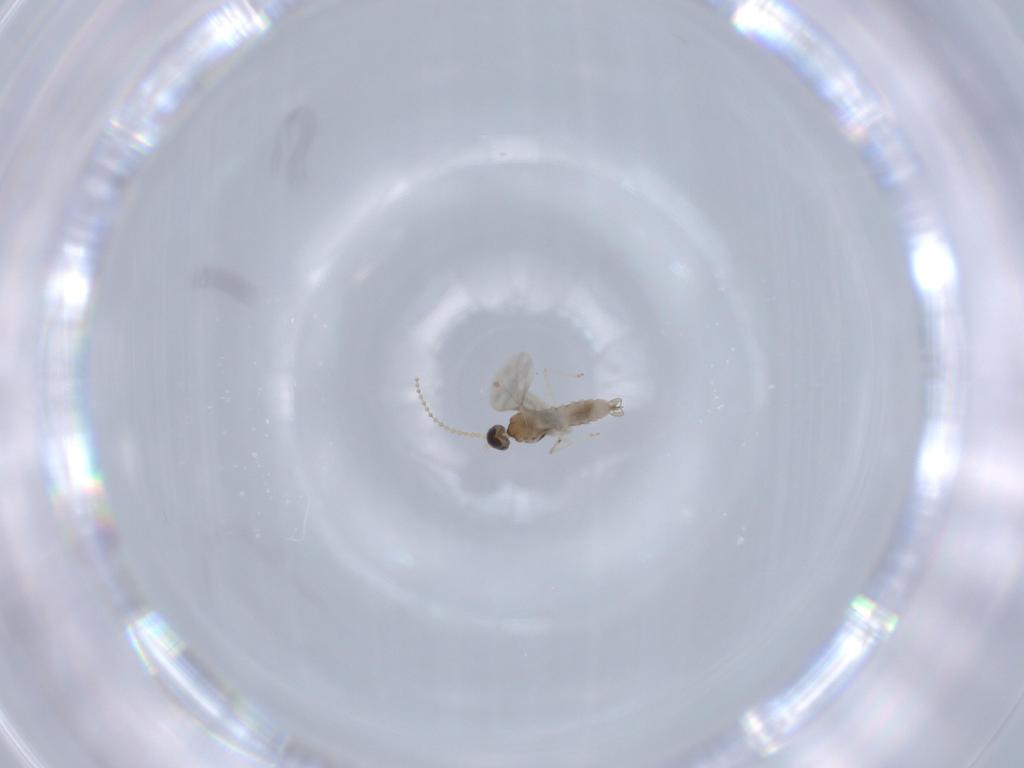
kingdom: Animalia
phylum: Arthropoda
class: Insecta
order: Diptera
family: Cecidomyiidae
